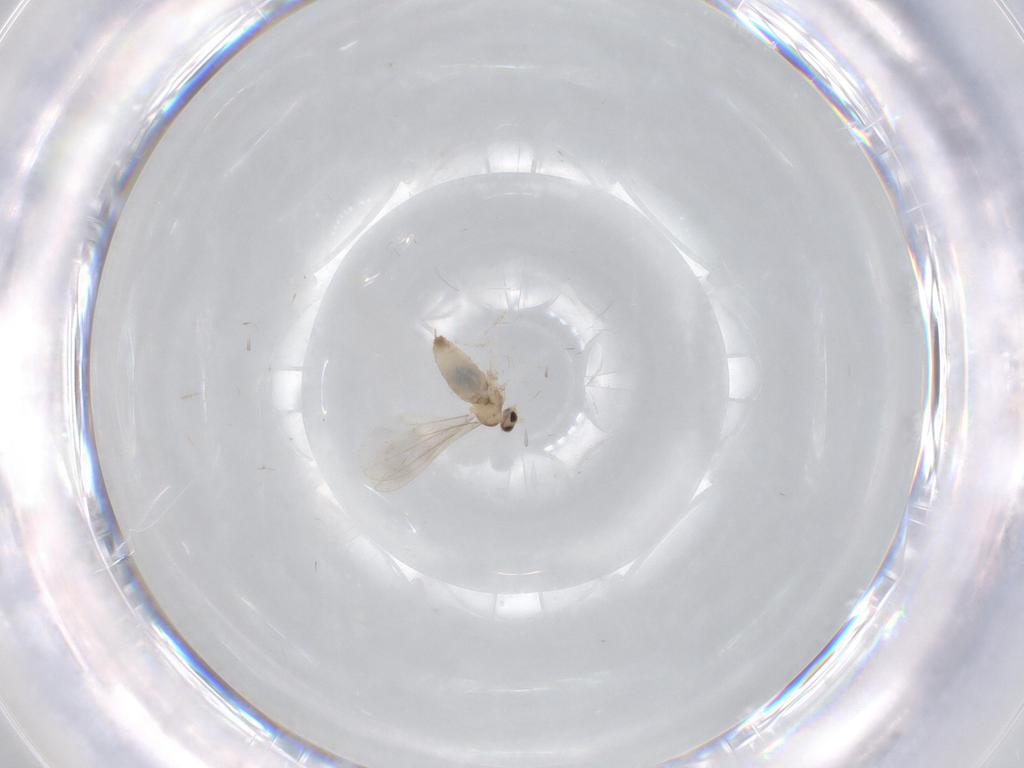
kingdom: Animalia
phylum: Arthropoda
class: Insecta
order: Diptera
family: Cecidomyiidae
